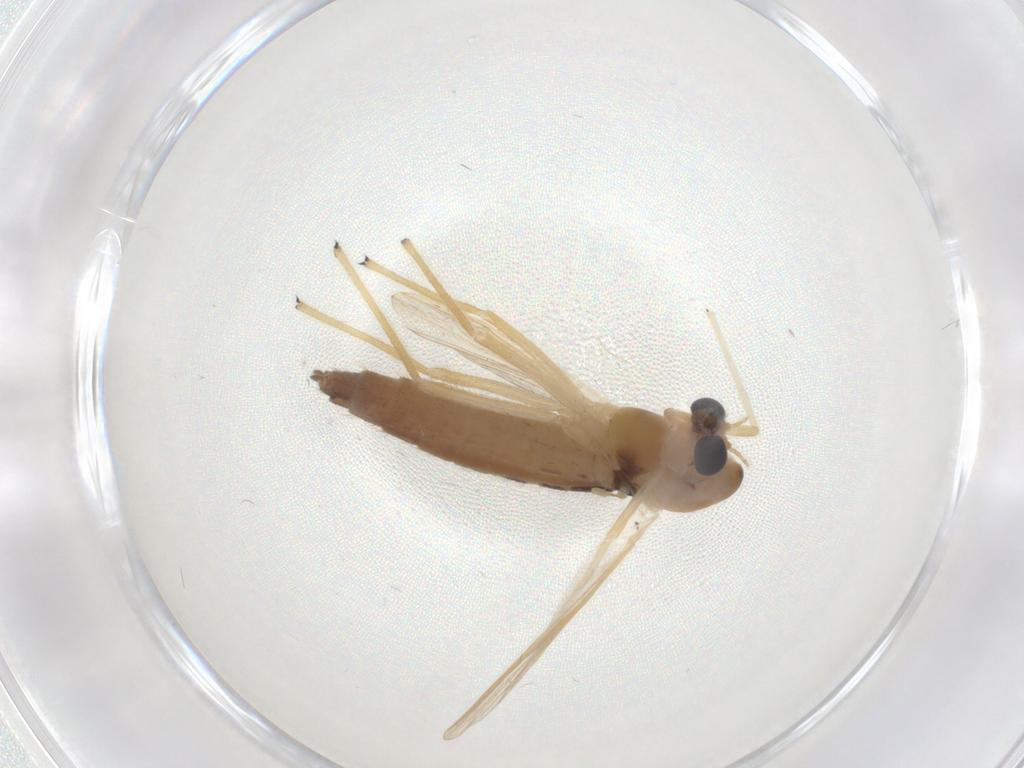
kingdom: Animalia
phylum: Arthropoda
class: Insecta
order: Diptera
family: Chironomidae
